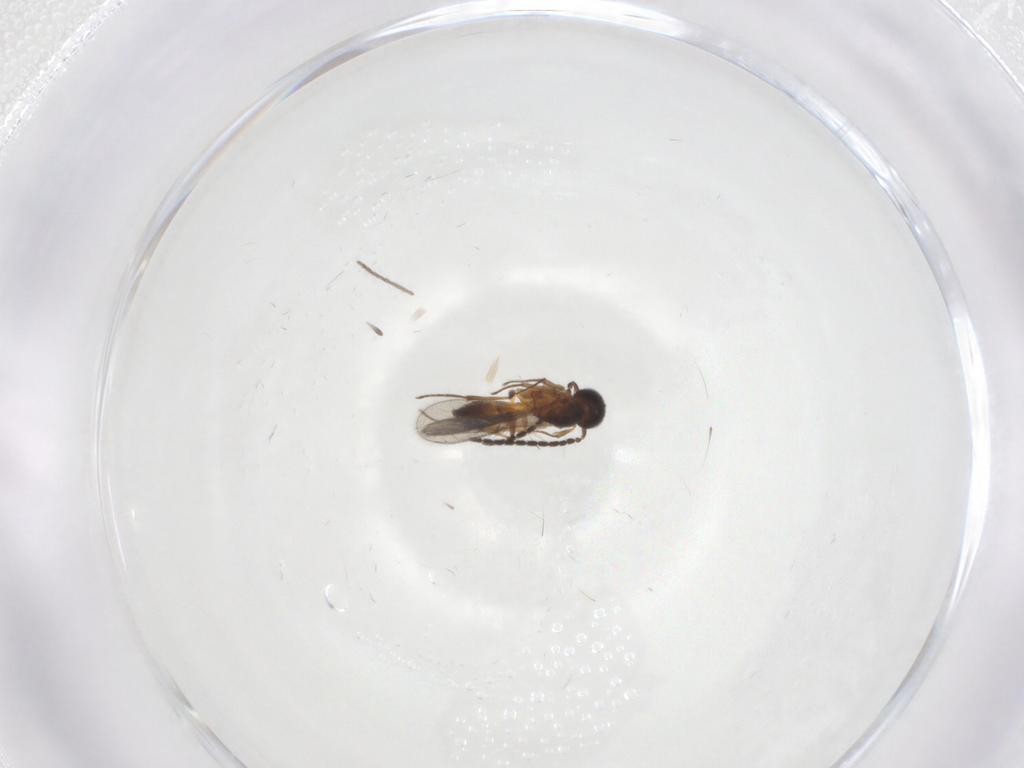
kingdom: Animalia
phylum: Arthropoda
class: Insecta
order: Hymenoptera
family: Scelionidae
